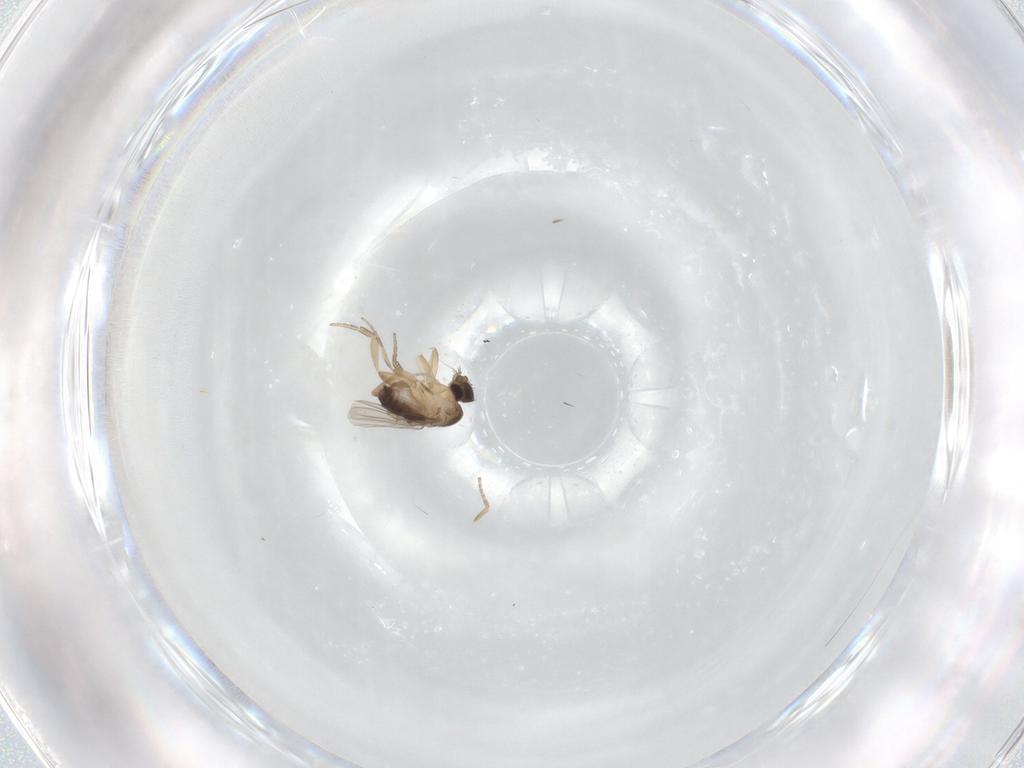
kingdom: Animalia
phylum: Arthropoda
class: Insecta
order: Diptera
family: Ceratopogonidae
